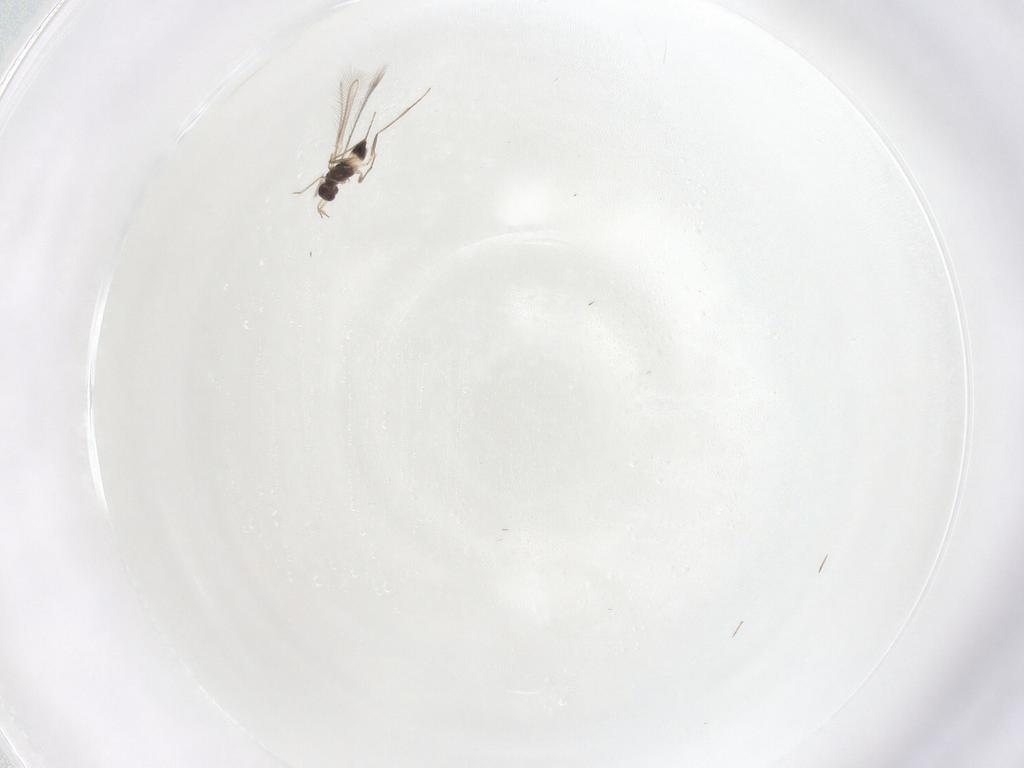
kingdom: Animalia
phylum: Arthropoda
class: Insecta
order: Hymenoptera
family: Mymaridae
